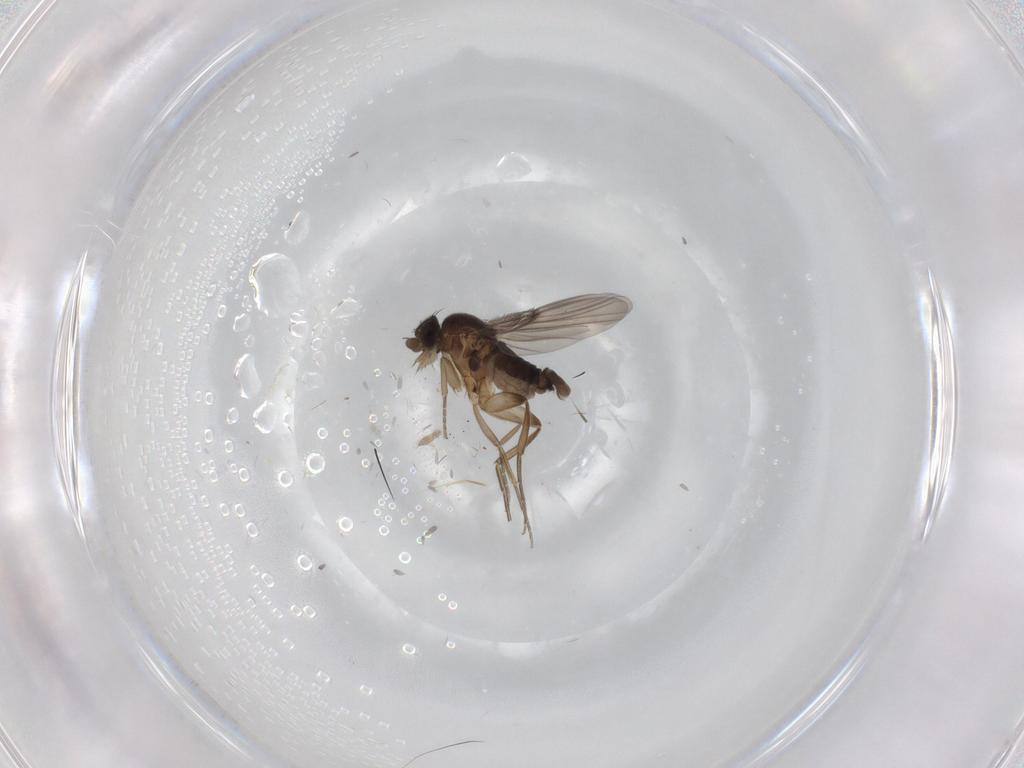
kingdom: Animalia
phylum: Arthropoda
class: Insecta
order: Diptera
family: Phoridae
